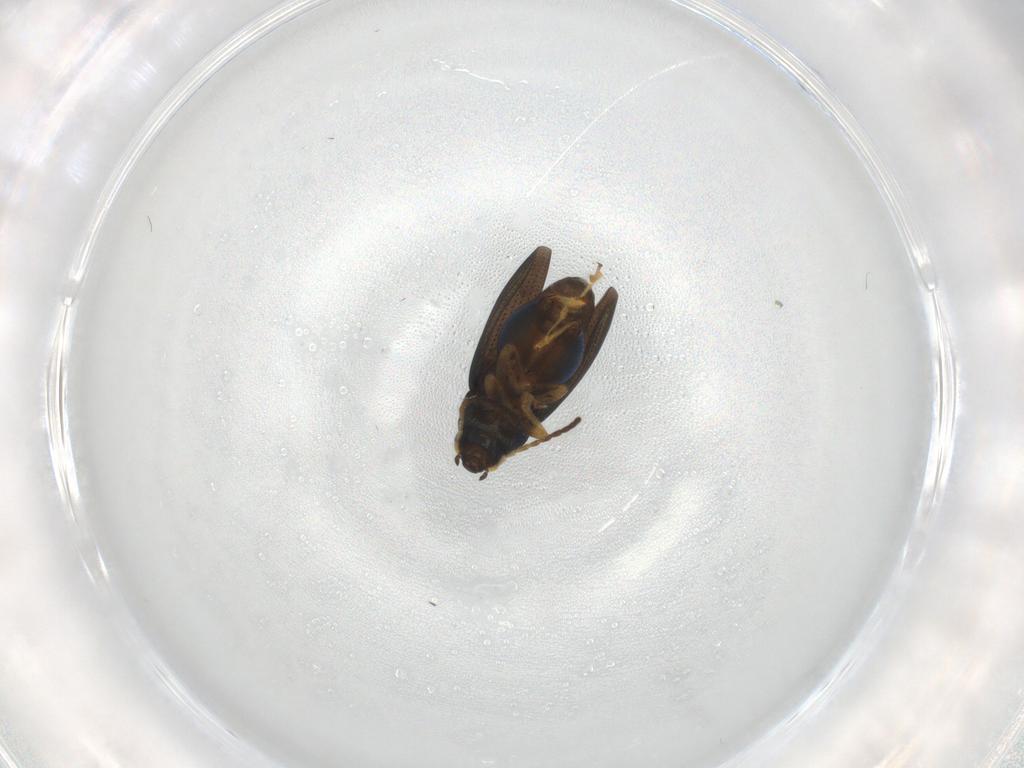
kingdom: Animalia
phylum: Arthropoda
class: Insecta
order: Coleoptera
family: Chrysomelidae
